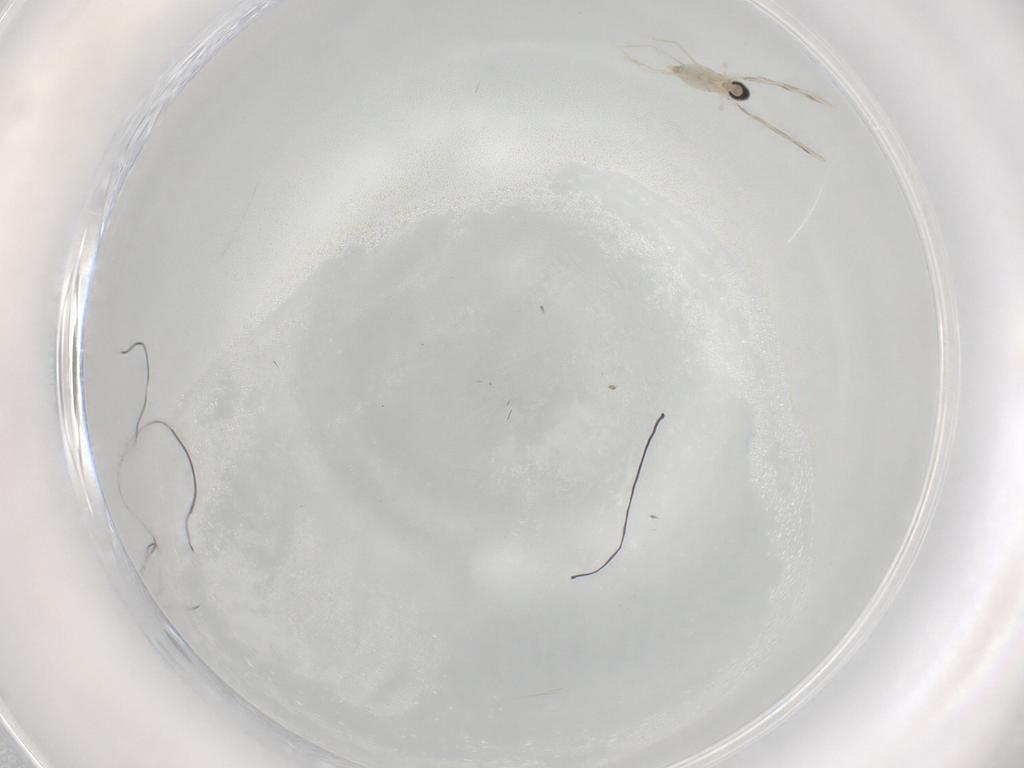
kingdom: Animalia
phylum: Arthropoda
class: Insecta
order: Diptera
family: Cecidomyiidae
